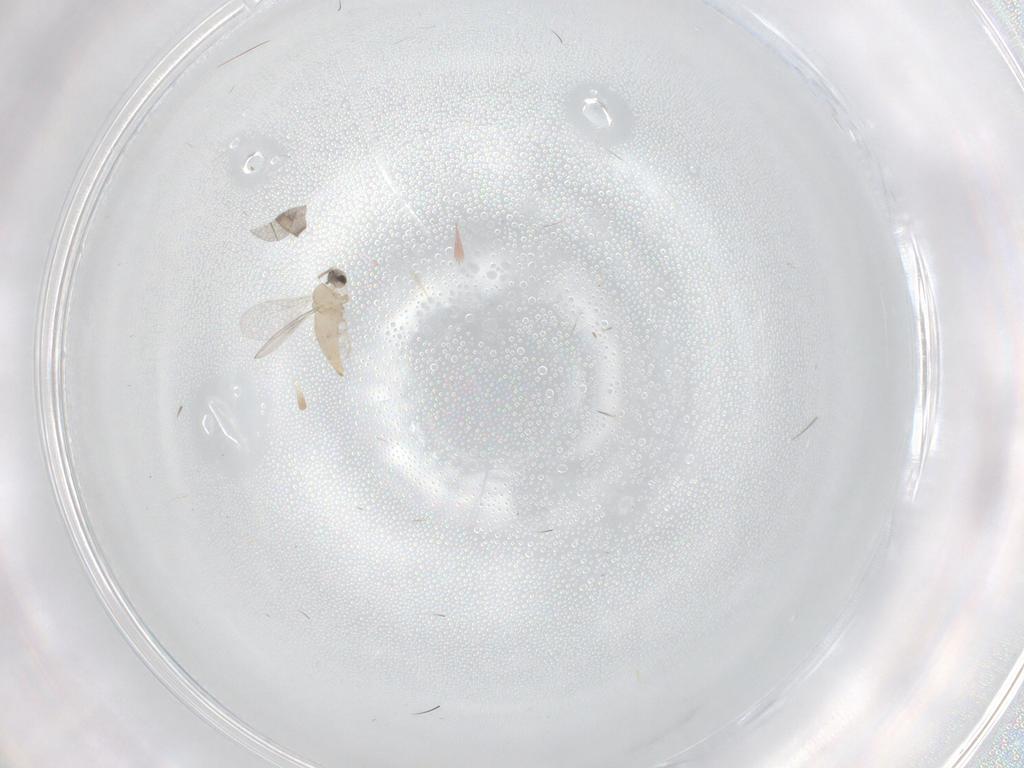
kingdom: Animalia
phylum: Arthropoda
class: Insecta
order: Diptera
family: Cecidomyiidae
